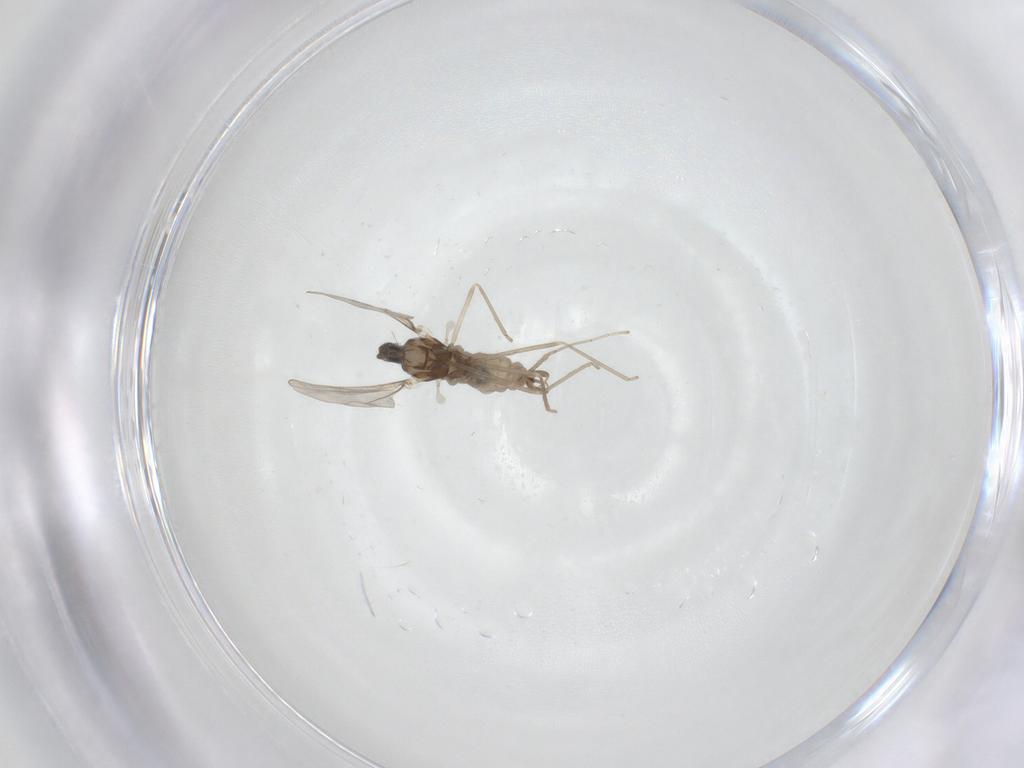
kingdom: Animalia
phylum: Arthropoda
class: Insecta
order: Diptera
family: Cecidomyiidae
